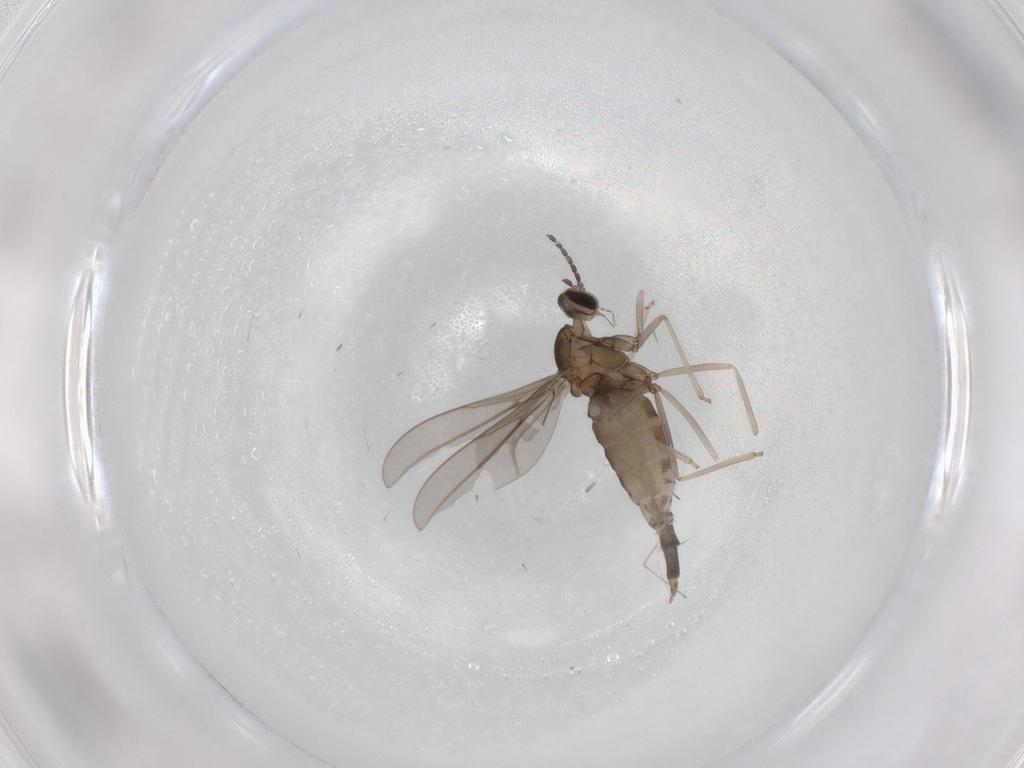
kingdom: Animalia
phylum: Arthropoda
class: Insecta
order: Diptera
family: Cecidomyiidae
